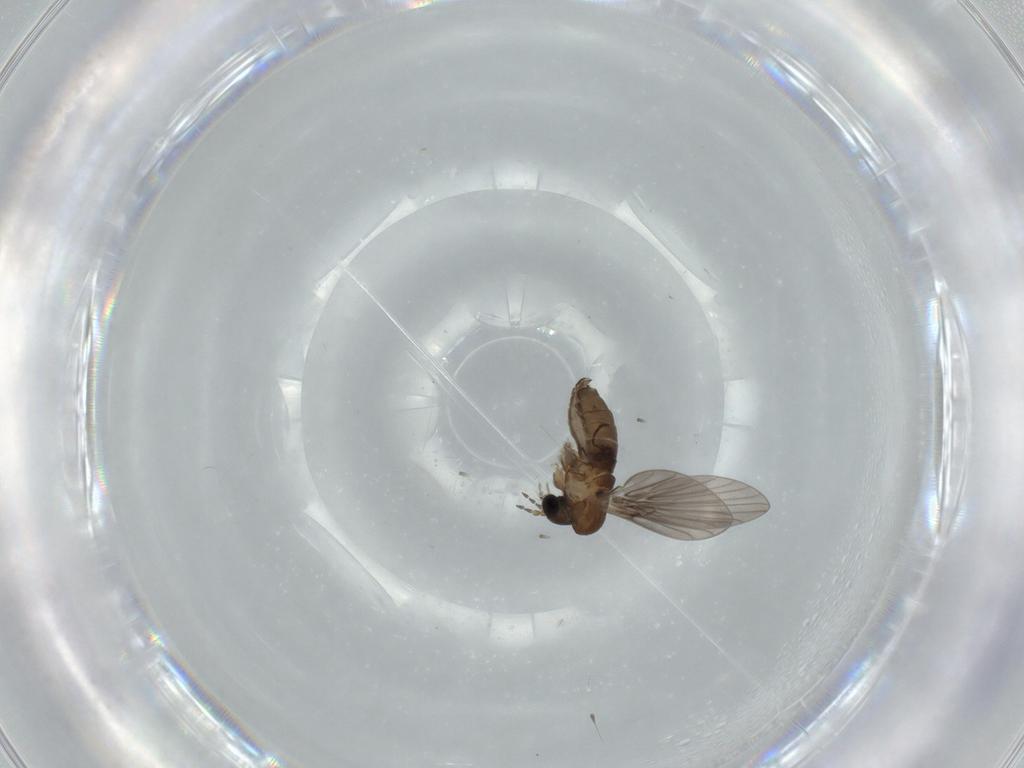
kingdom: Animalia
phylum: Arthropoda
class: Insecta
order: Diptera
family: Psychodidae
